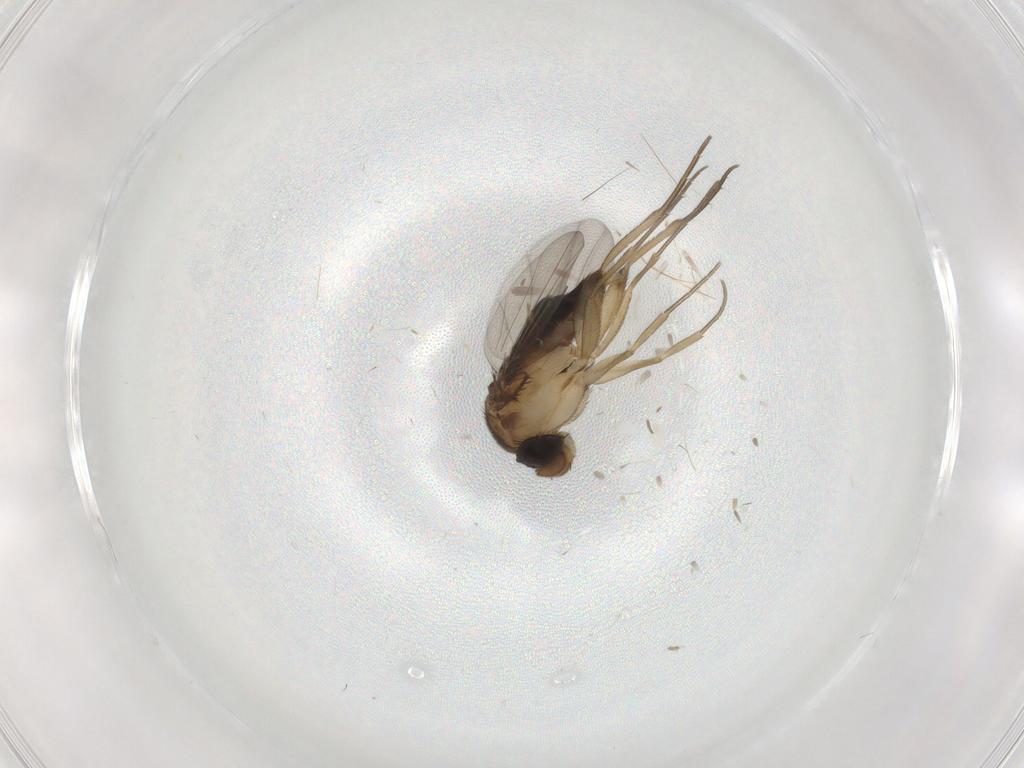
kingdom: Animalia
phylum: Arthropoda
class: Insecta
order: Diptera
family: Phoridae
